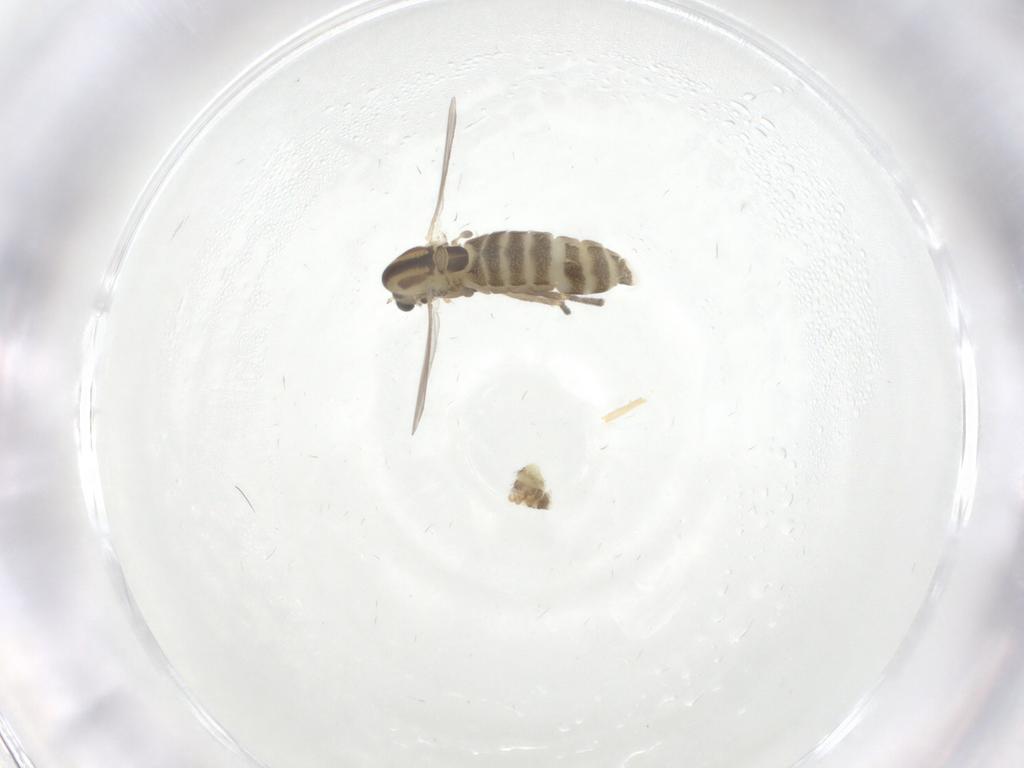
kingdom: Animalia
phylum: Arthropoda
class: Insecta
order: Diptera
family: Chironomidae
